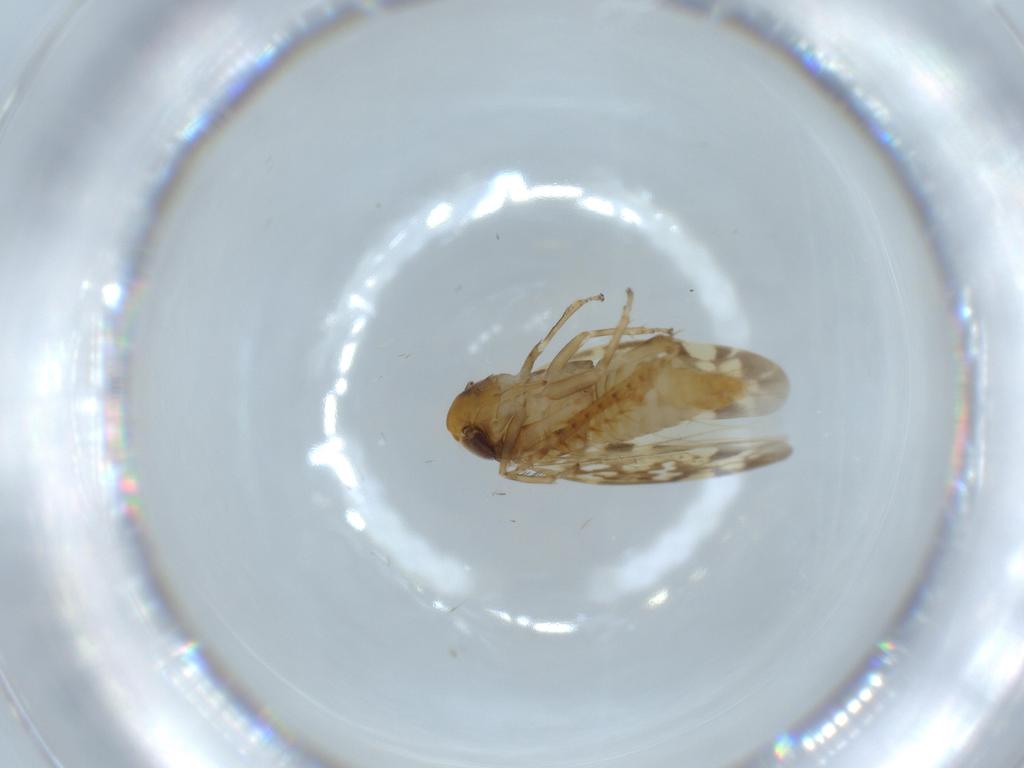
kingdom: Animalia
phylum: Arthropoda
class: Insecta
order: Hemiptera
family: Cicadellidae
